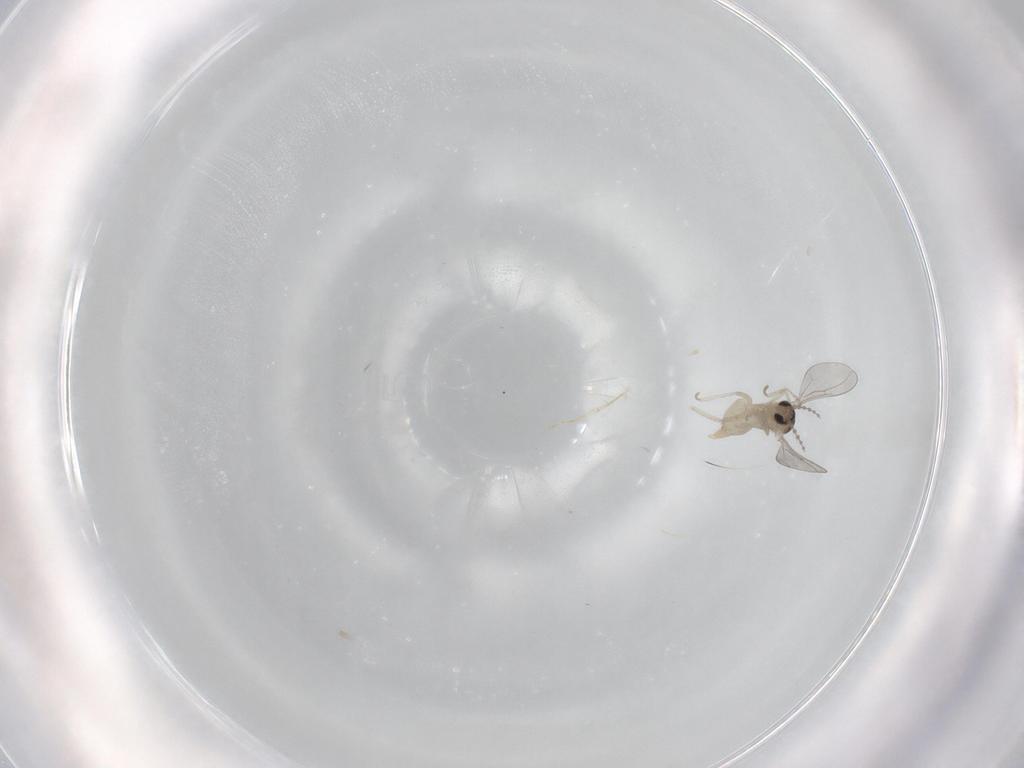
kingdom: Animalia
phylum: Arthropoda
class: Insecta
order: Diptera
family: Cecidomyiidae
